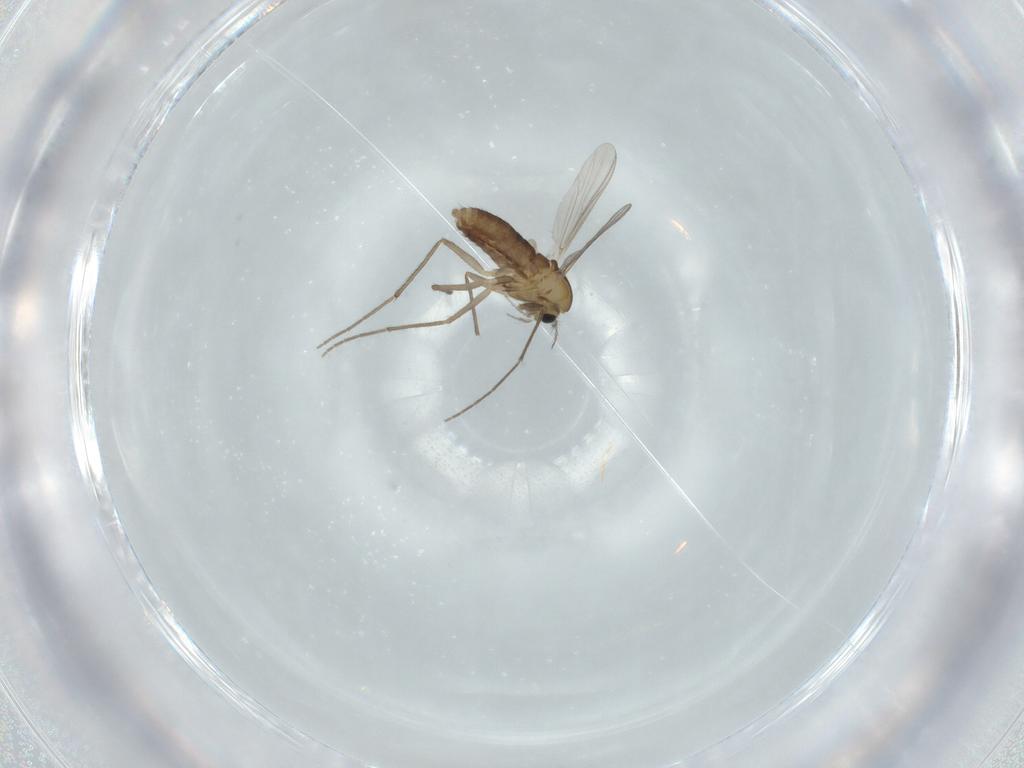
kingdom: Animalia
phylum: Arthropoda
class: Insecta
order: Diptera
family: Chironomidae
